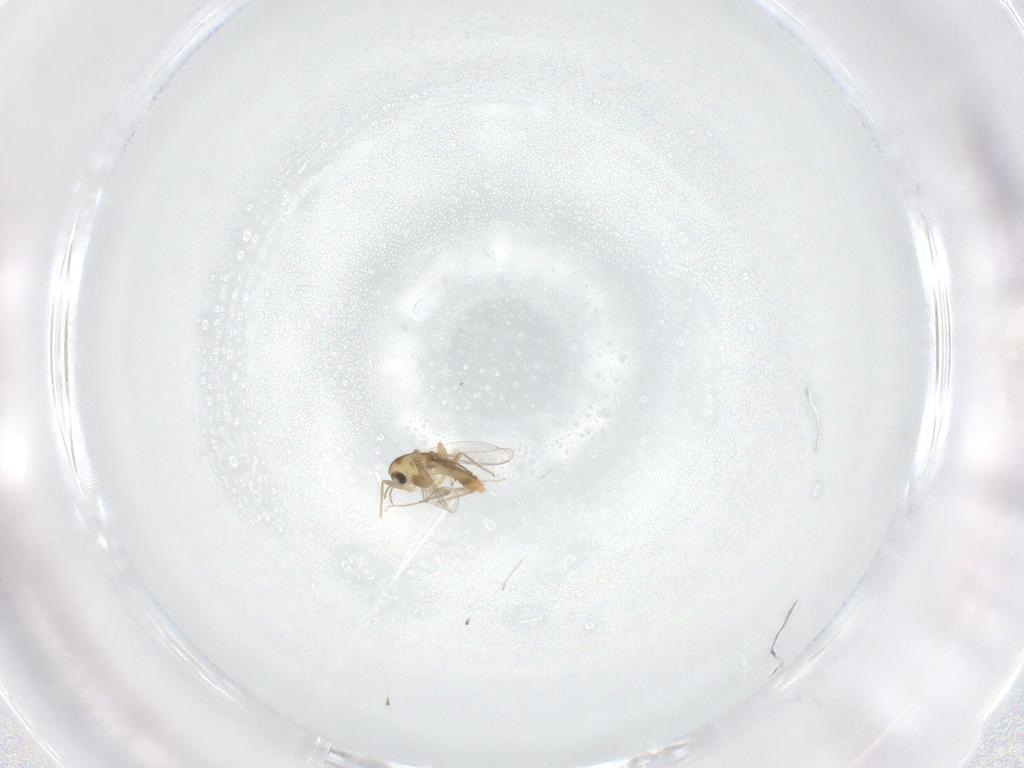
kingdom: Animalia
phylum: Arthropoda
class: Insecta
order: Diptera
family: Chironomidae
